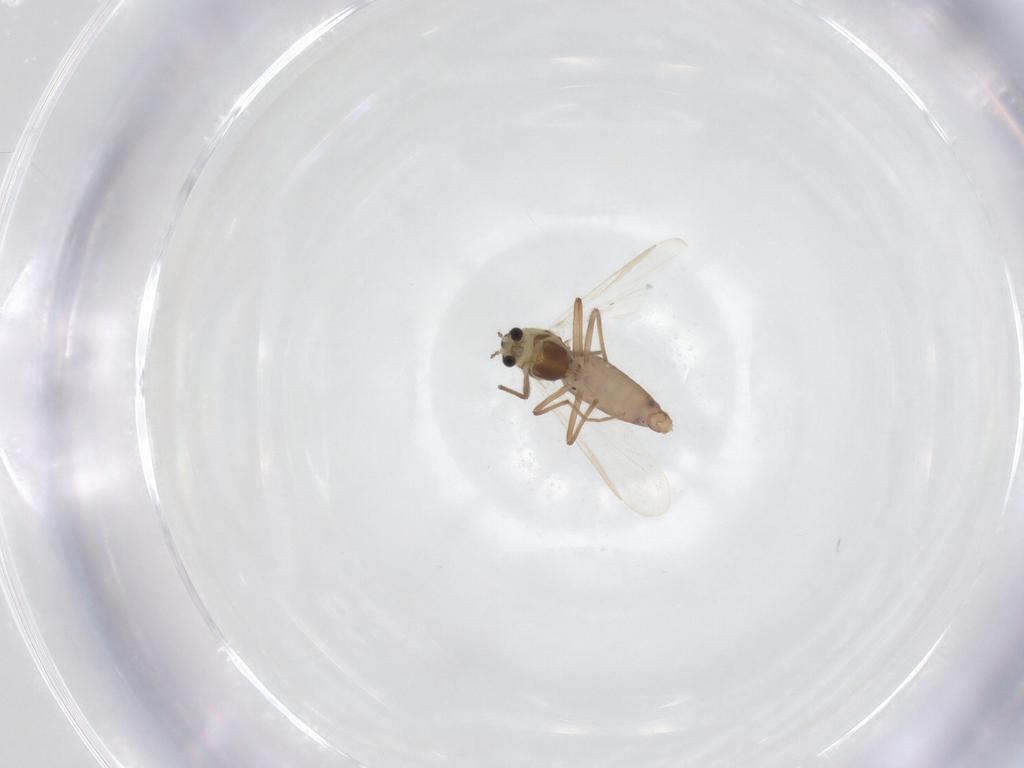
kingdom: Animalia
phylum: Arthropoda
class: Insecta
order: Diptera
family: Chironomidae
